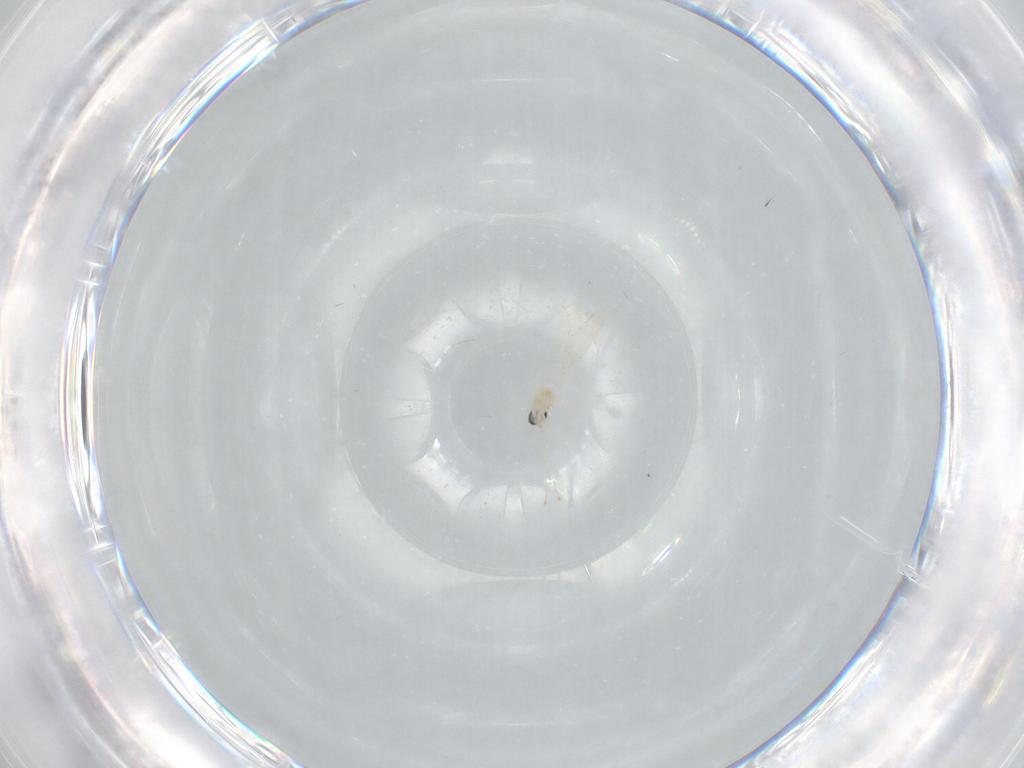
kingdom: Animalia
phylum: Arthropoda
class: Insecta
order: Diptera
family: Cecidomyiidae
